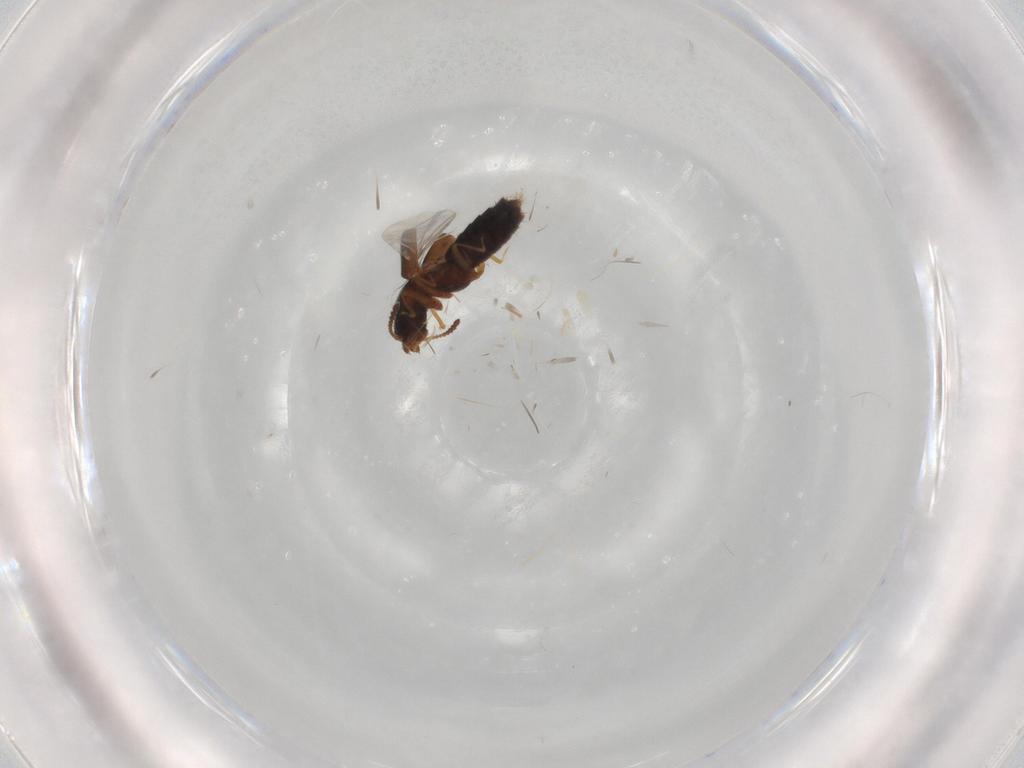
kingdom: Animalia
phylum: Arthropoda
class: Insecta
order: Coleoptera
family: Staphylinidae
